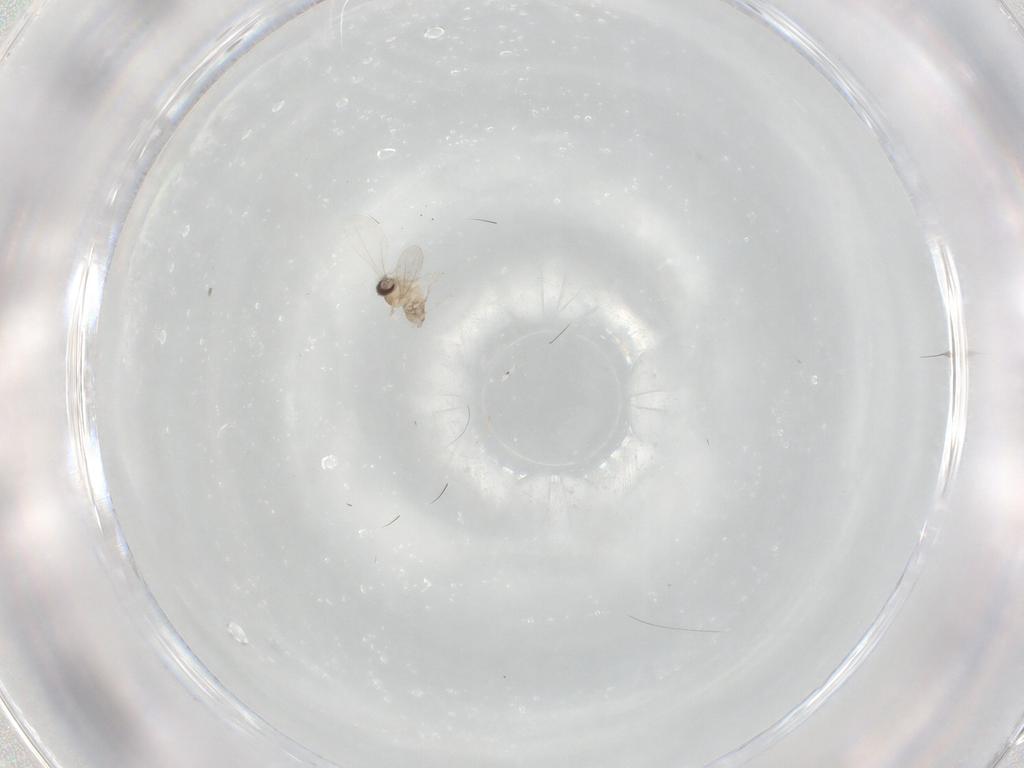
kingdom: Animalia
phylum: Arthropoda
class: Insecta
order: Diptera
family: Cecidomyiidae
